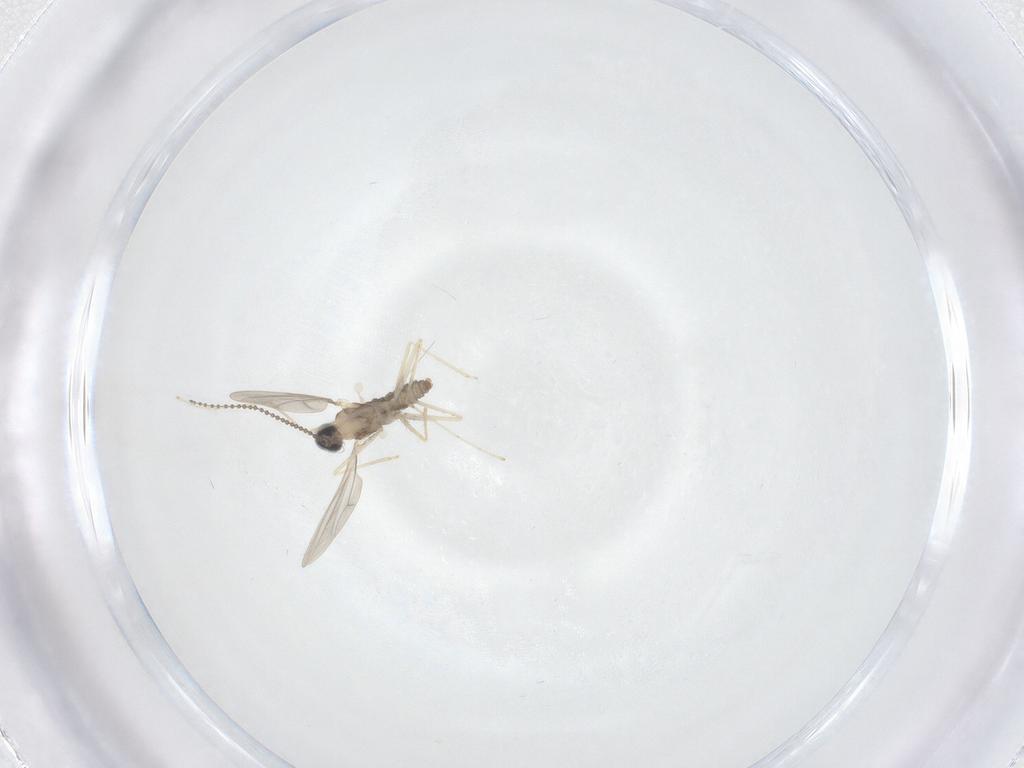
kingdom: Animalia
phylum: Arthropoda
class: Insecta
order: Diptera
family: Cecidomyiidae
